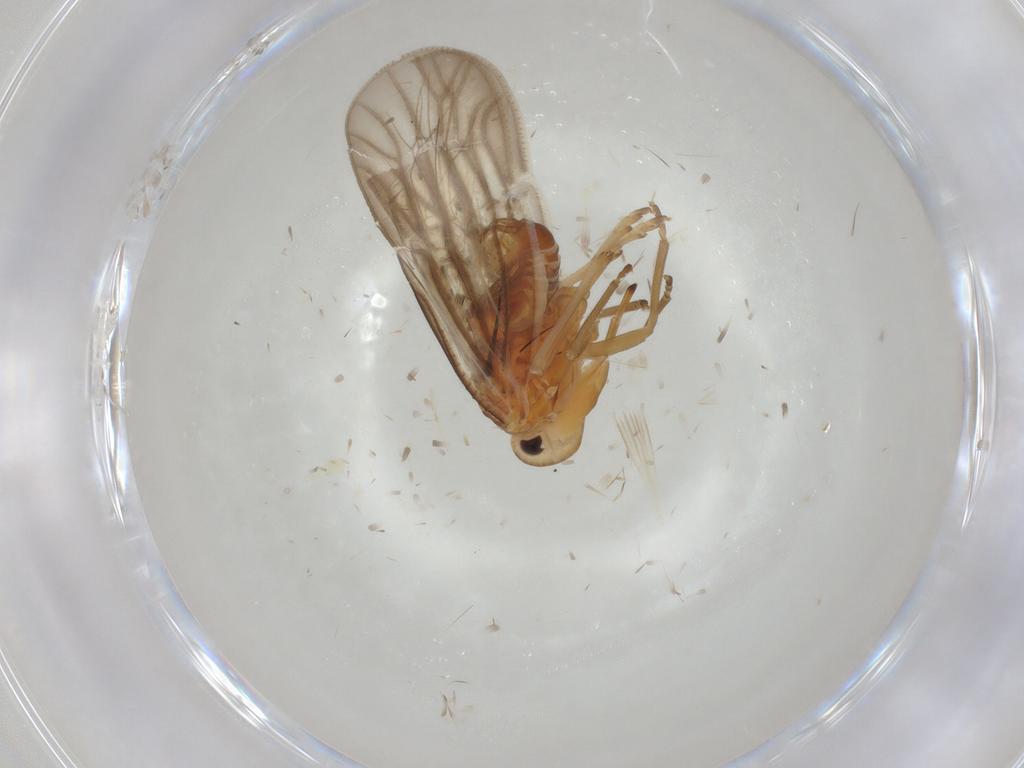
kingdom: Animalia
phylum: Arthropoda
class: Insecta
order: Hemiptera
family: Meenoplidae
